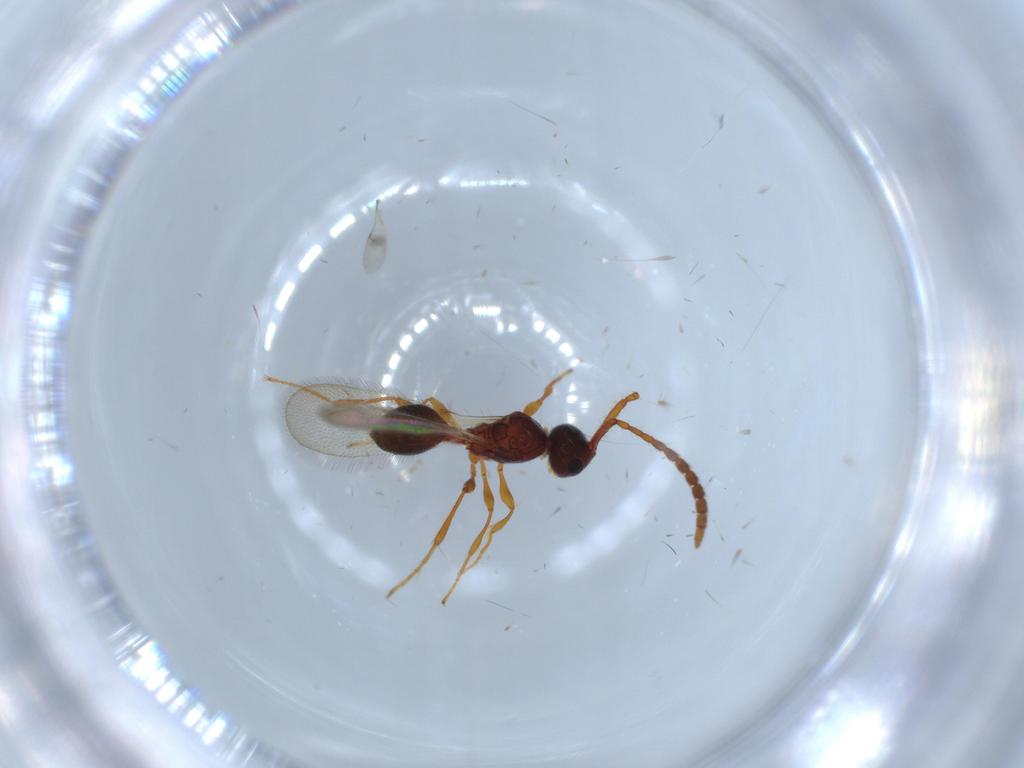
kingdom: Animalia
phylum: Arthropoda
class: Insecta
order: Hymenoptera
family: Diapriidae
